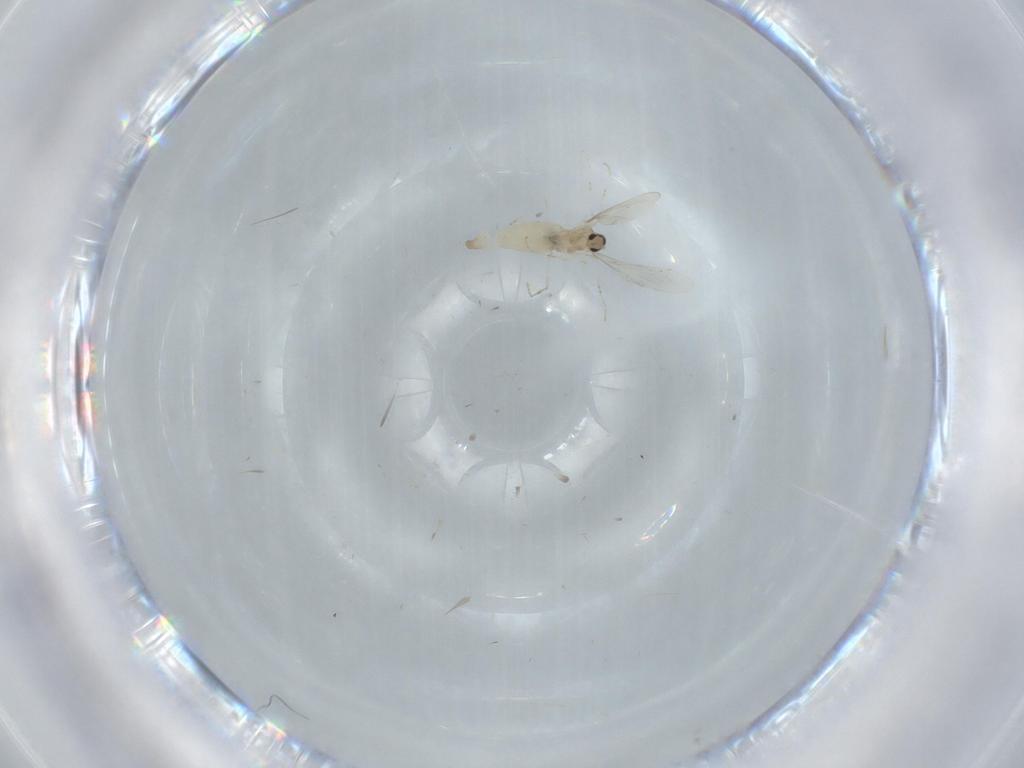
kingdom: Animalia
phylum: Arthropoda
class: Insecta
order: Diptera
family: Cecidomyiidae
